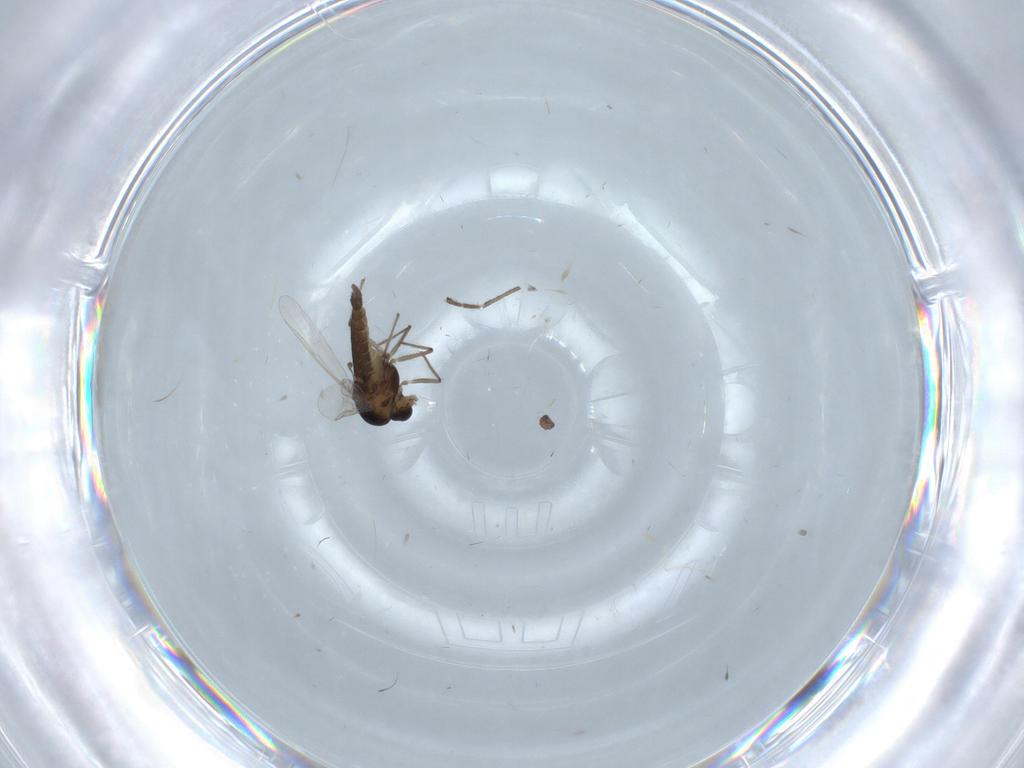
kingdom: Animalia
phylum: Arthropoda
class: Insecta
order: Diptera
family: Chironomidae
